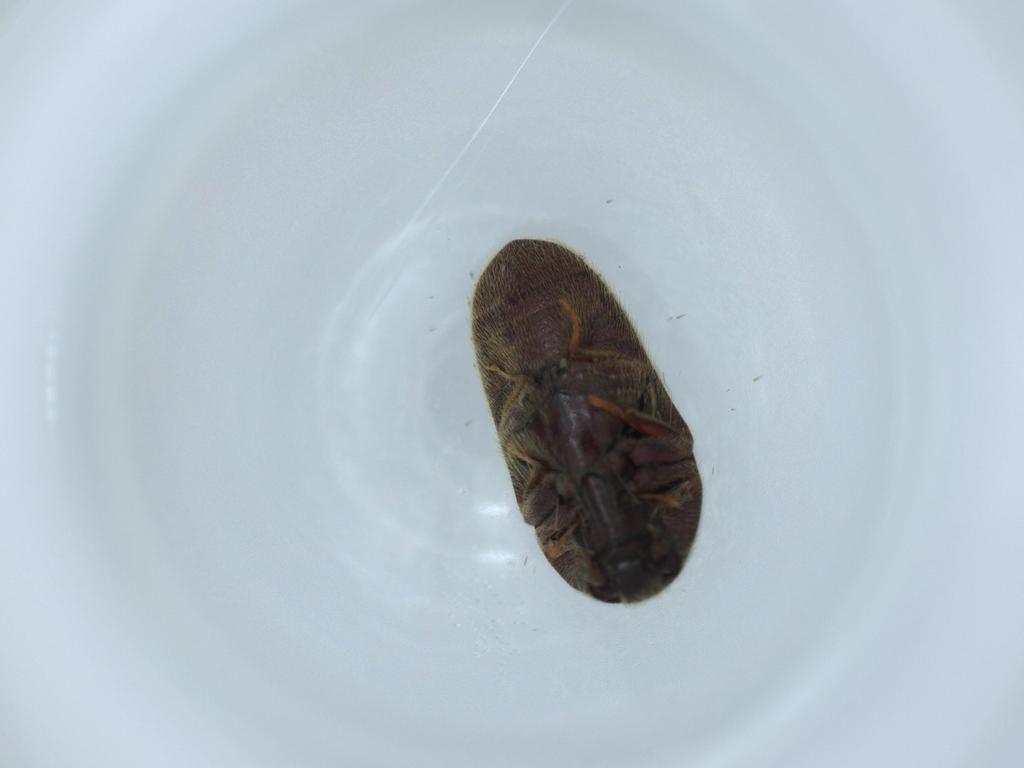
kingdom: Animalia
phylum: Arthropoda
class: Insecta
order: Coleoptera
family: Throscidae
